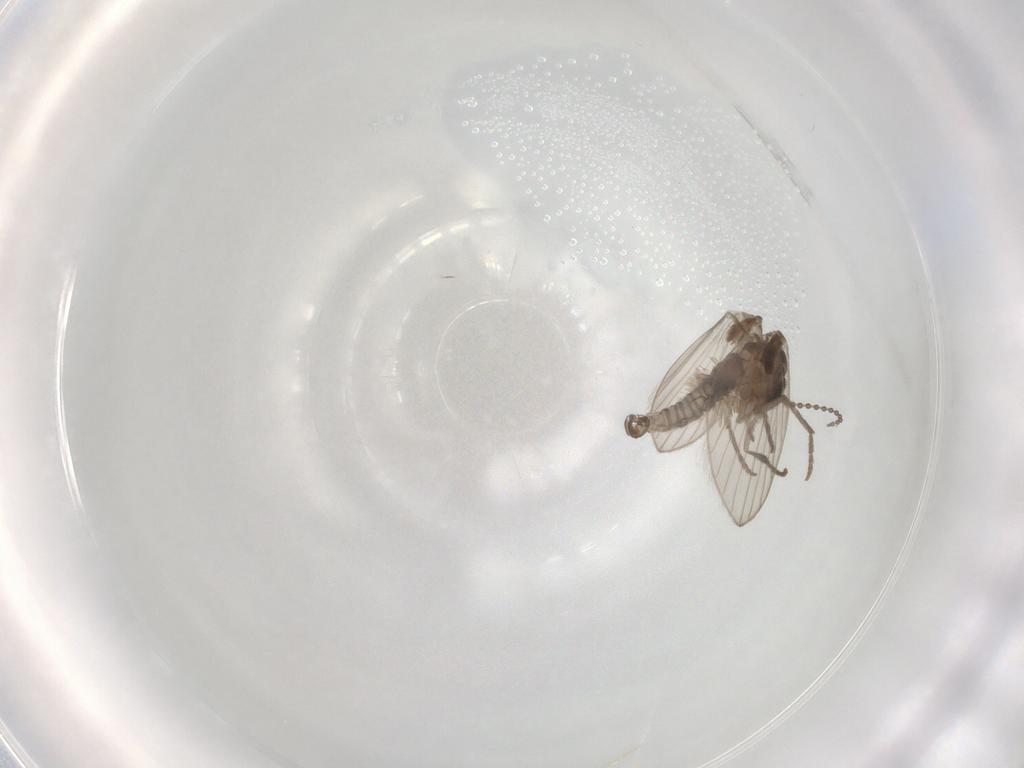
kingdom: Animalia
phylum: Arthropoda
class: Insecta
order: Diptera
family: Psychodidae
